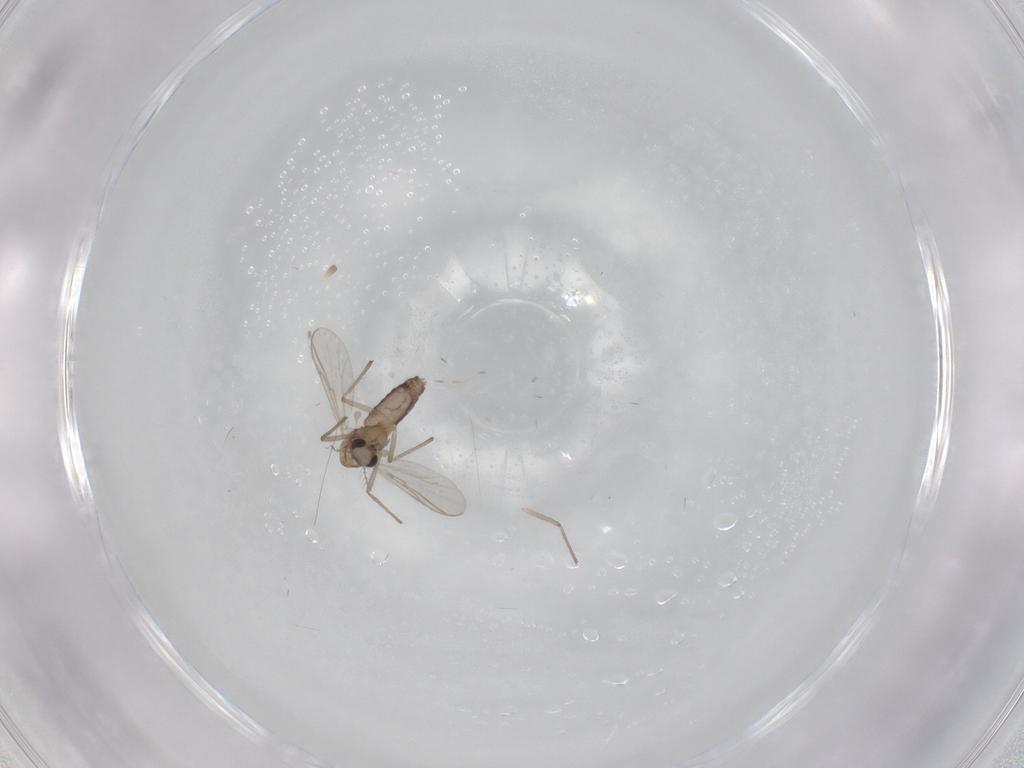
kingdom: Animalia
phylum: Arthropoda
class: Insecta
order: Diptera
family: Chironomidae
